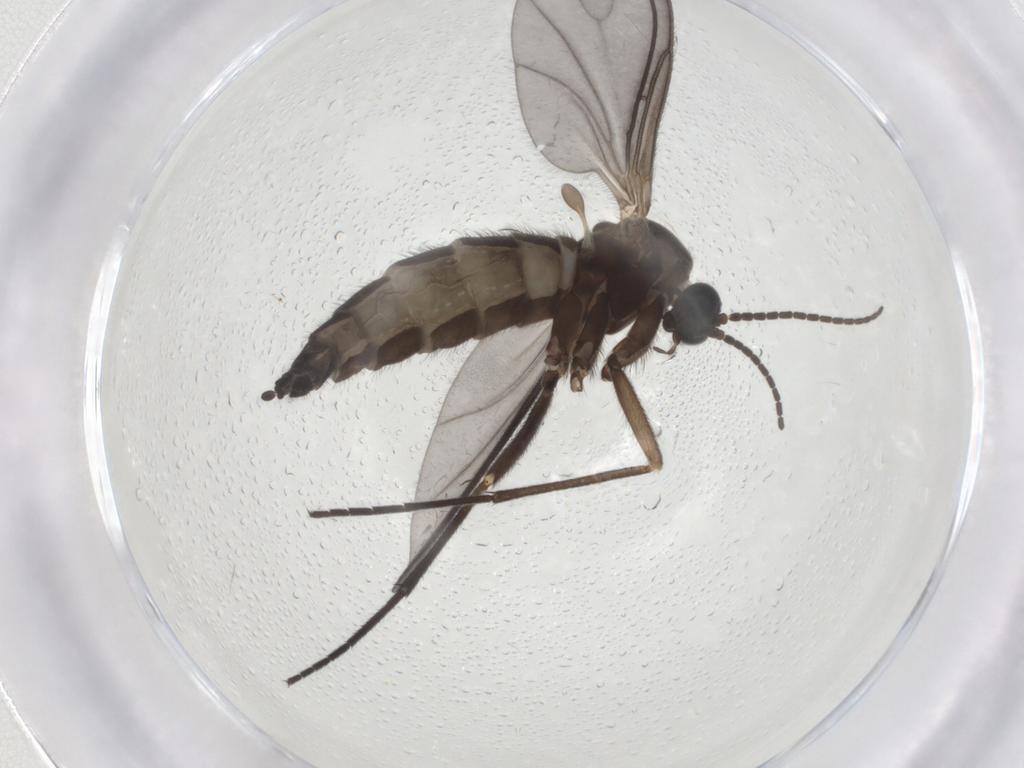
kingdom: Animalia
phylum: Arthropoda
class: Insecta
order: Diptera
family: Sciaridae
